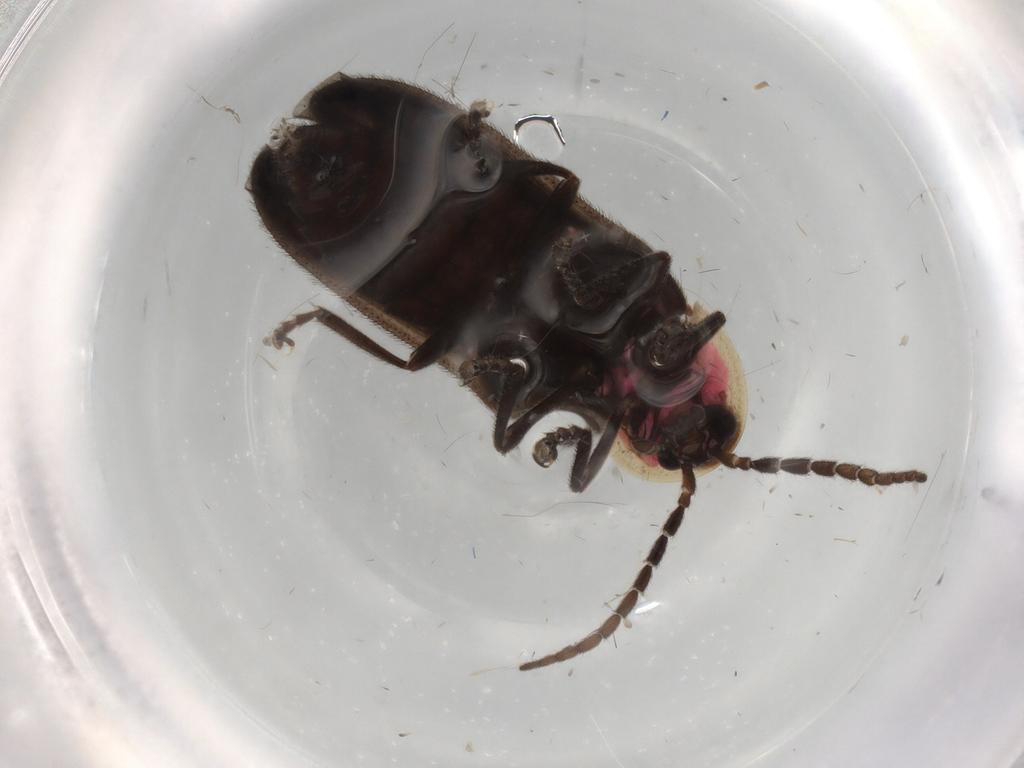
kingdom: Animalia
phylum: Arthropoda
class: Insecta
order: Coleoptera
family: Lampyridae
